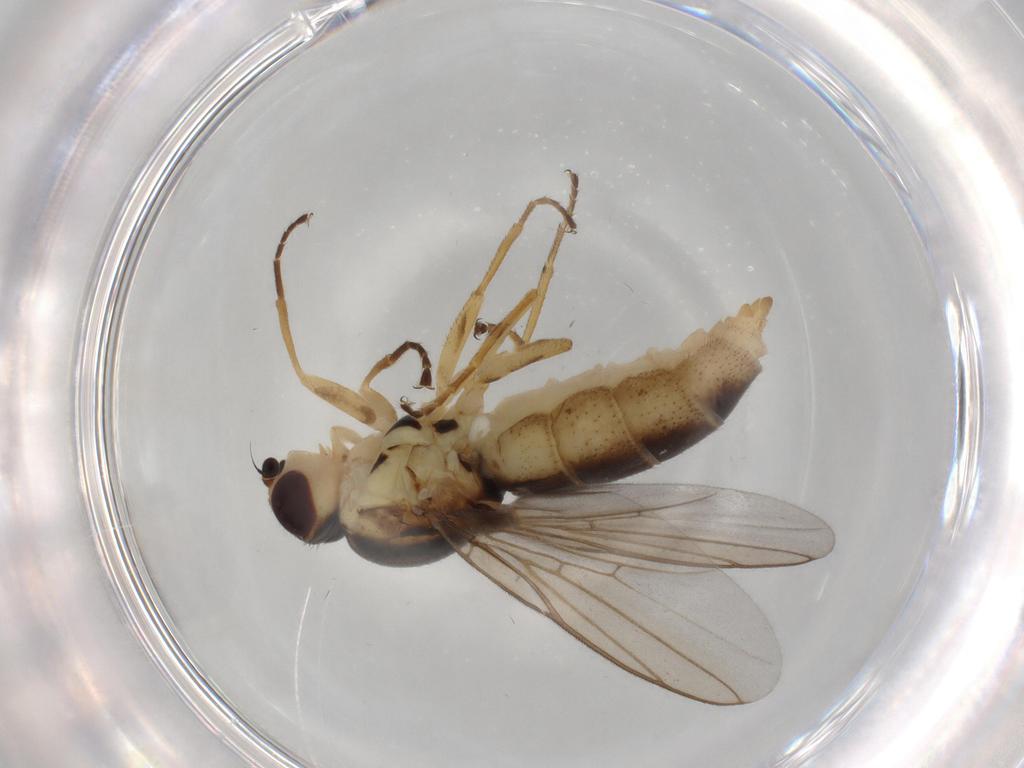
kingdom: Animalia
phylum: Arthropoda
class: Insecta
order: Diptera
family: Chloropidae
